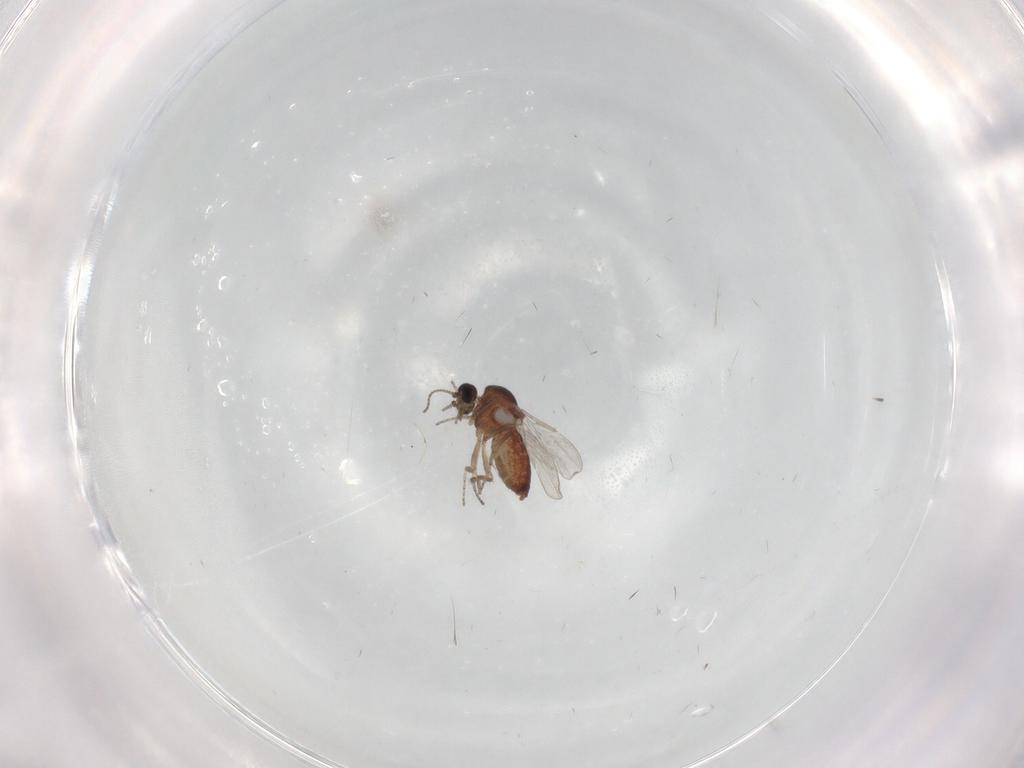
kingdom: Animalia
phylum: Arthropoda
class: Insecta
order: Diptera
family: Ceratopogonidae
